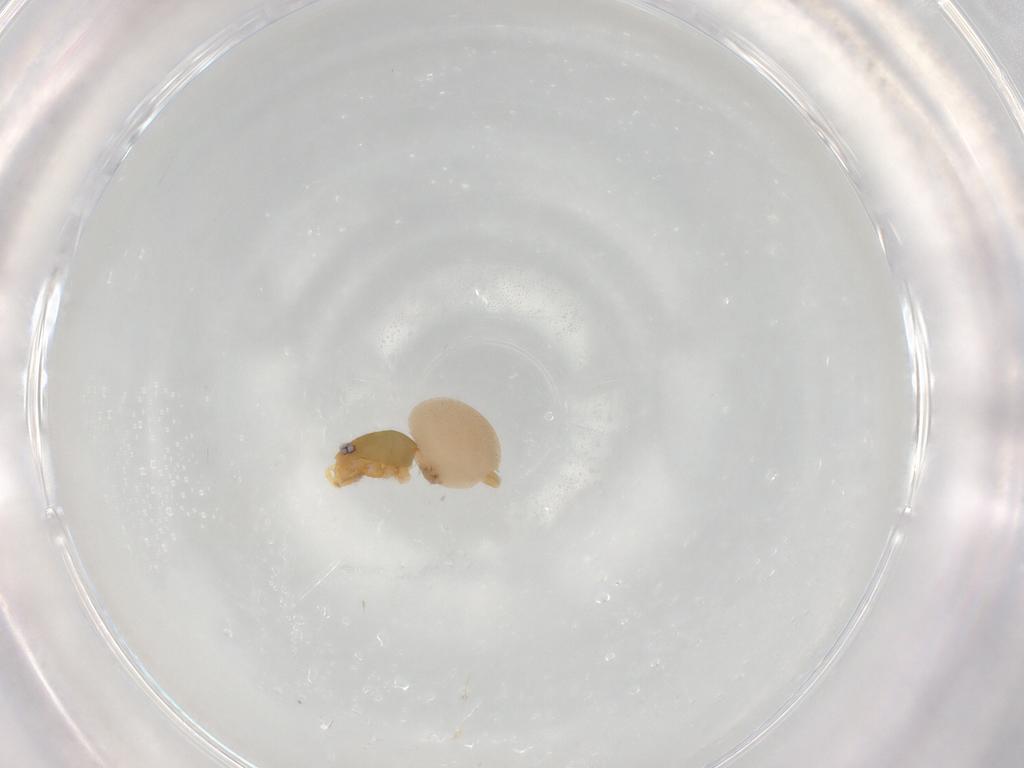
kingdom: Animalia
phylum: Arthropoda
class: Arachnida
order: Araneae
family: Oonopidae
